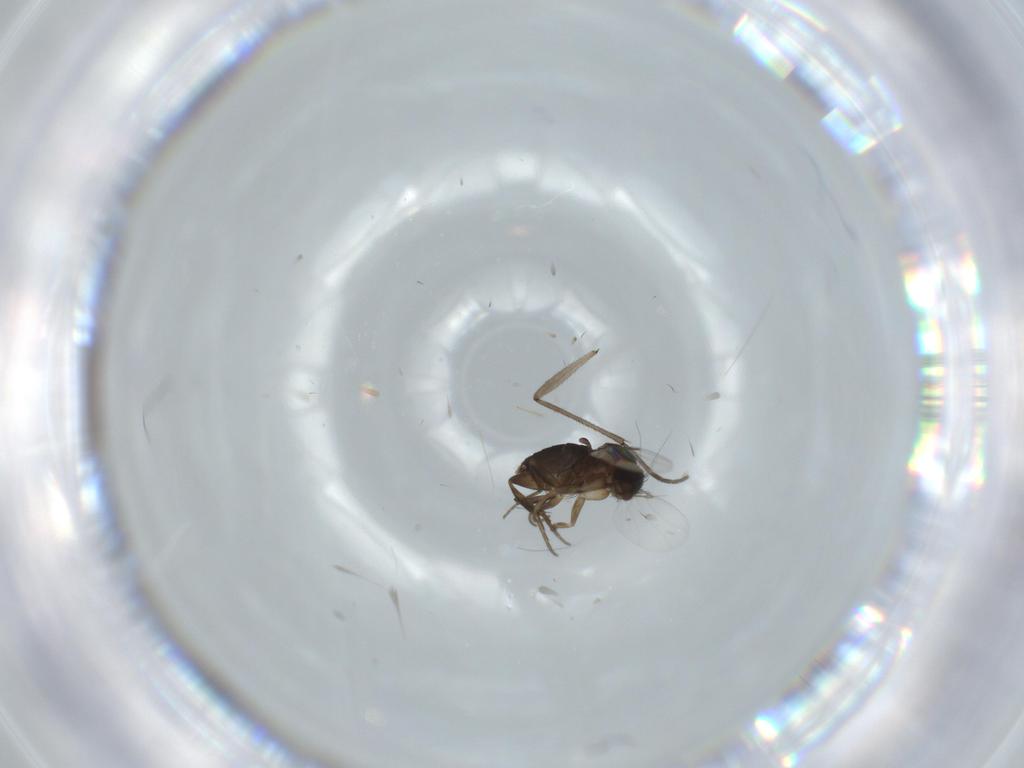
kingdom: Animalia
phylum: Arthropoda
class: Insecta
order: Diptera
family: Phoridae
